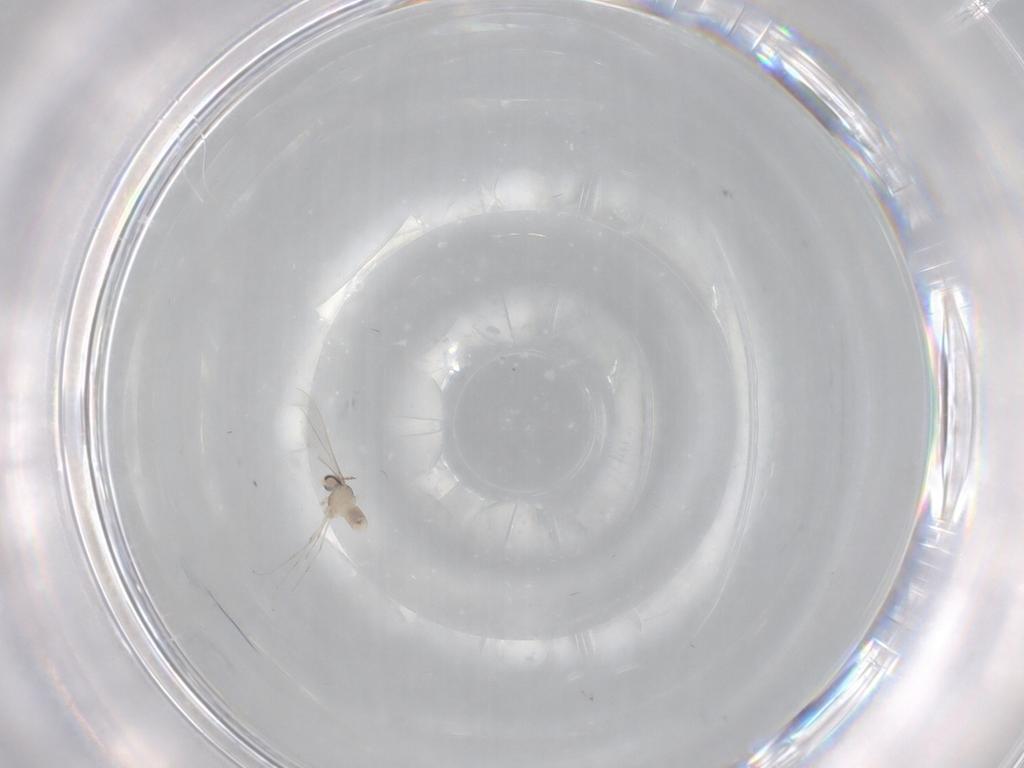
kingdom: Animalia
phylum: Arthropoda
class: Insecta
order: Diptera
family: Cecidomyiidae
